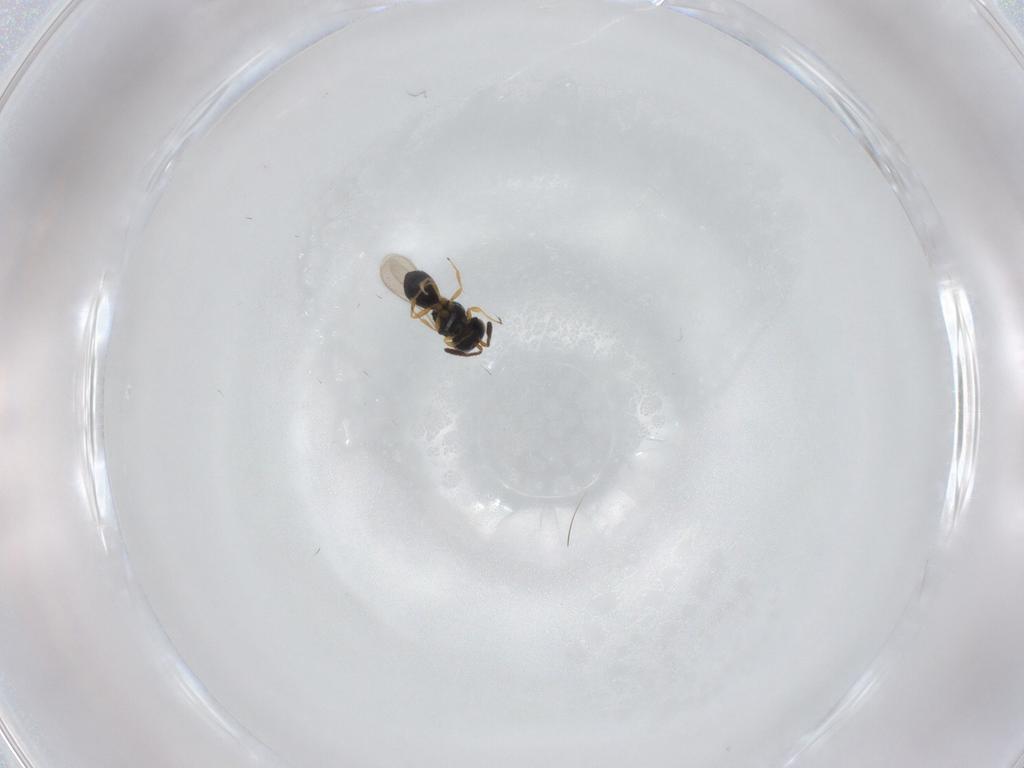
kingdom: Animalia
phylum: Arthropoda
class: Insecta
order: Hymenoptera
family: Scelionidae
